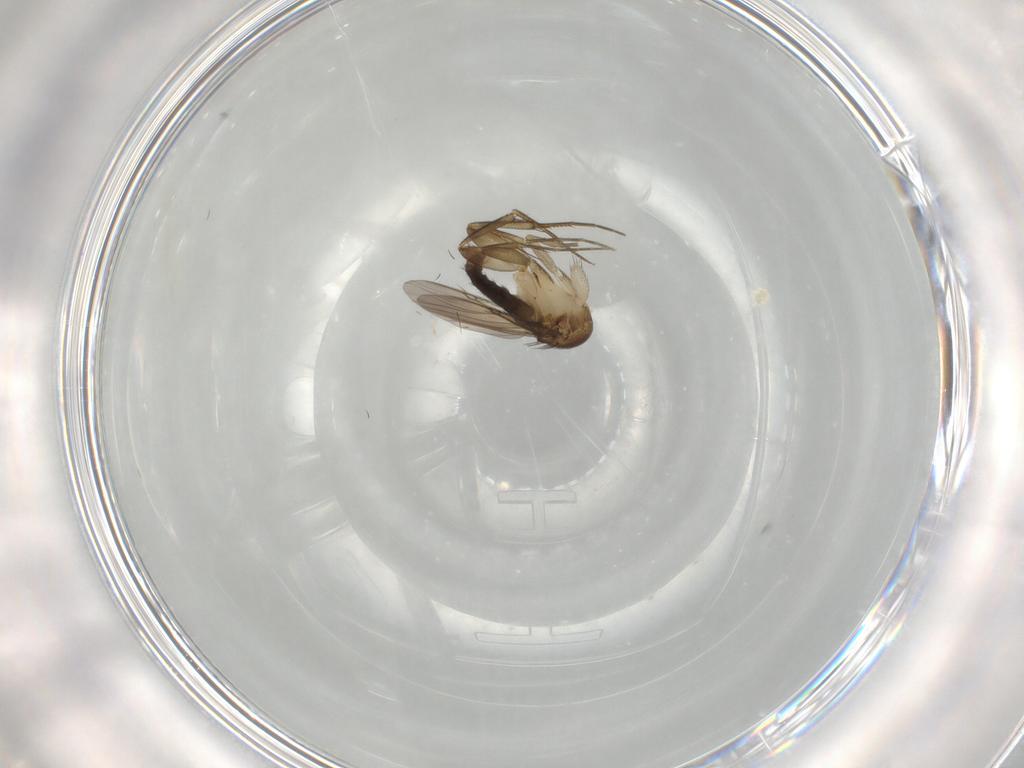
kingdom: Animalia
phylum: Arthropoda
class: Insecta
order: Diptera
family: Phoridae
